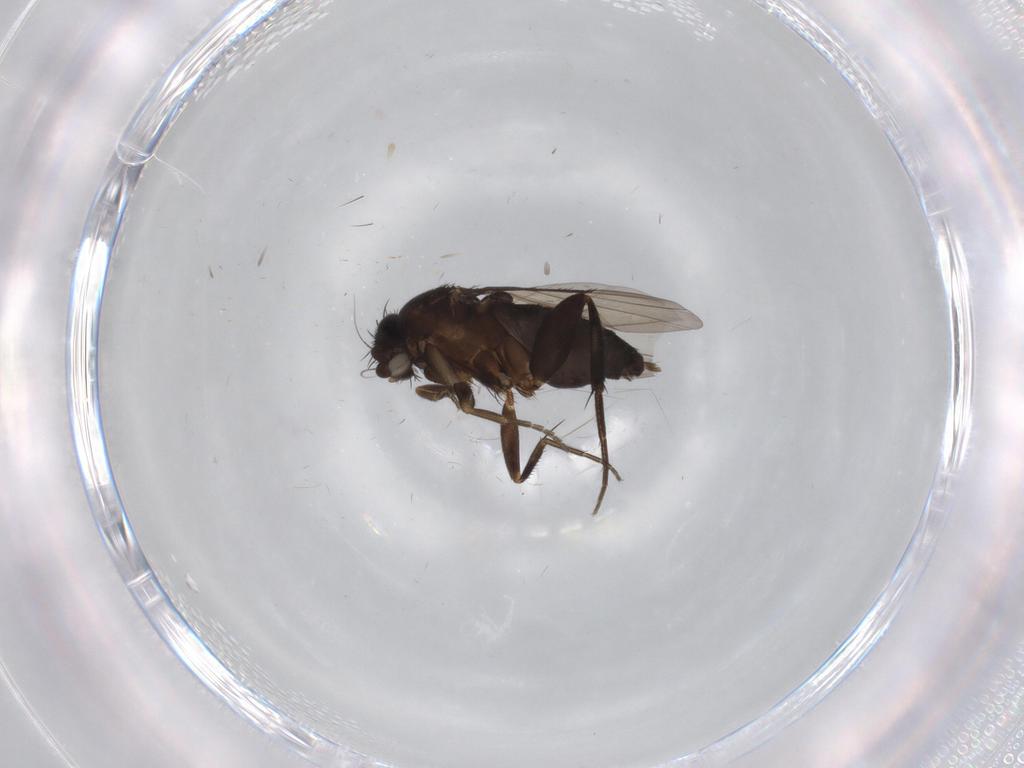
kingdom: Animalia
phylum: Arthropoda
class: Insecta
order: Diptera
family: Phoridae
